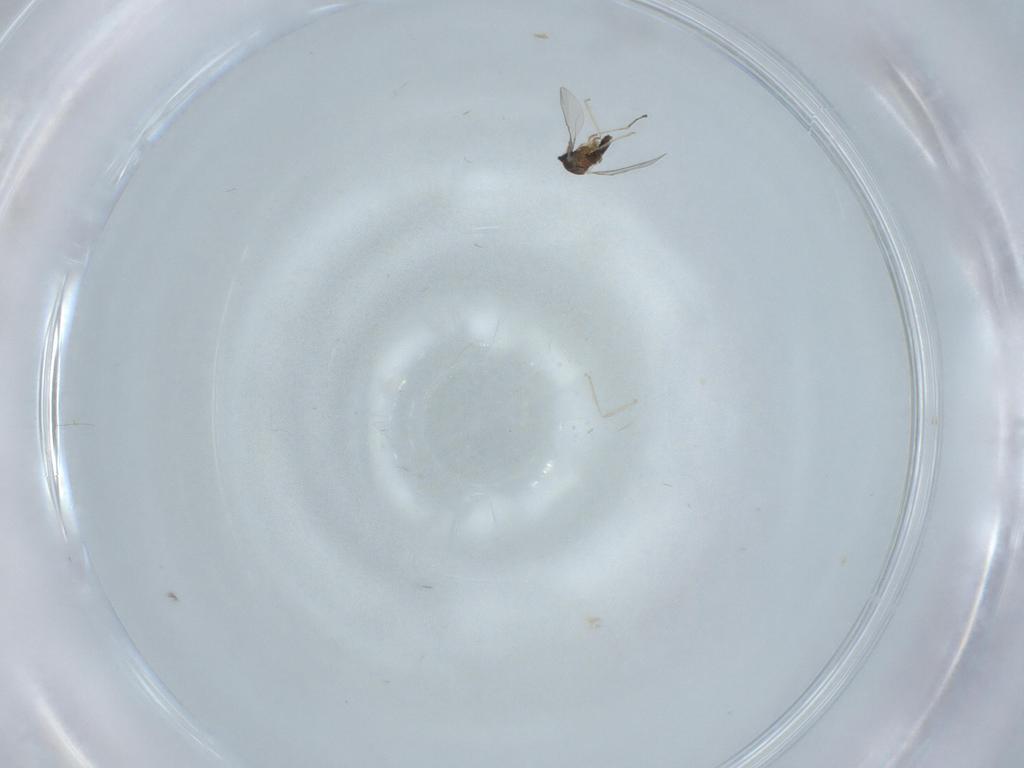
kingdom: Animalia
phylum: Arthropoda
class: Insecta
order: Diptera
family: Cecidomyiidae
